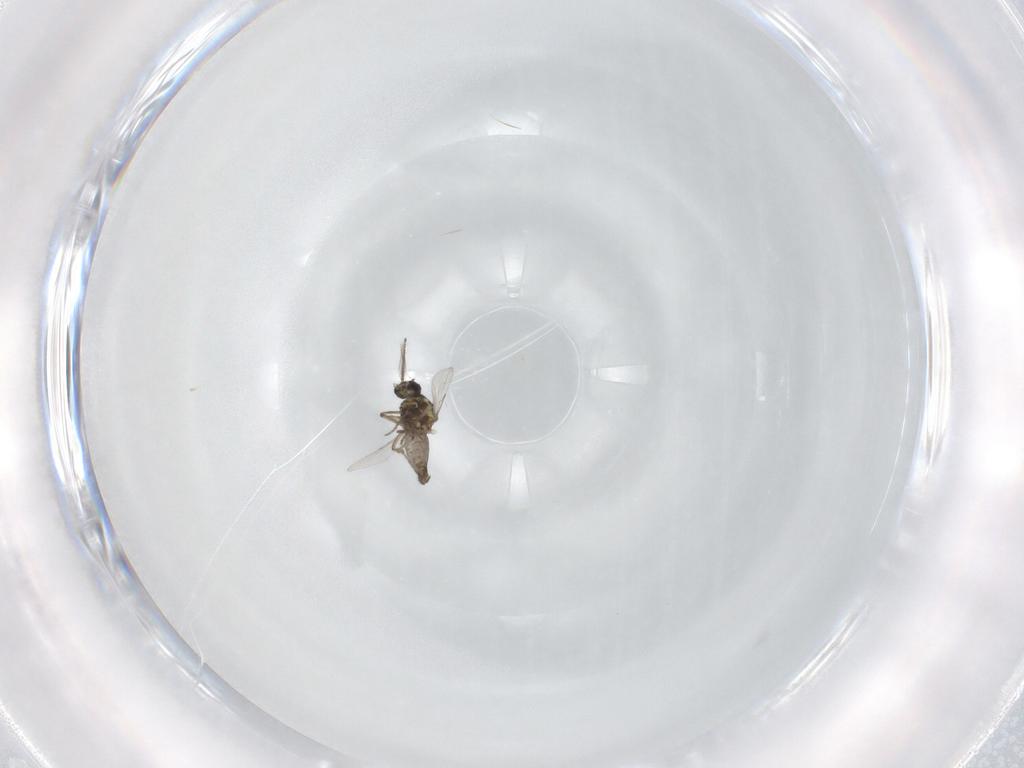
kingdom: Animalia
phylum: Arthropoda
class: Insecta
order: Diptera
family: Ceratopogonidae
